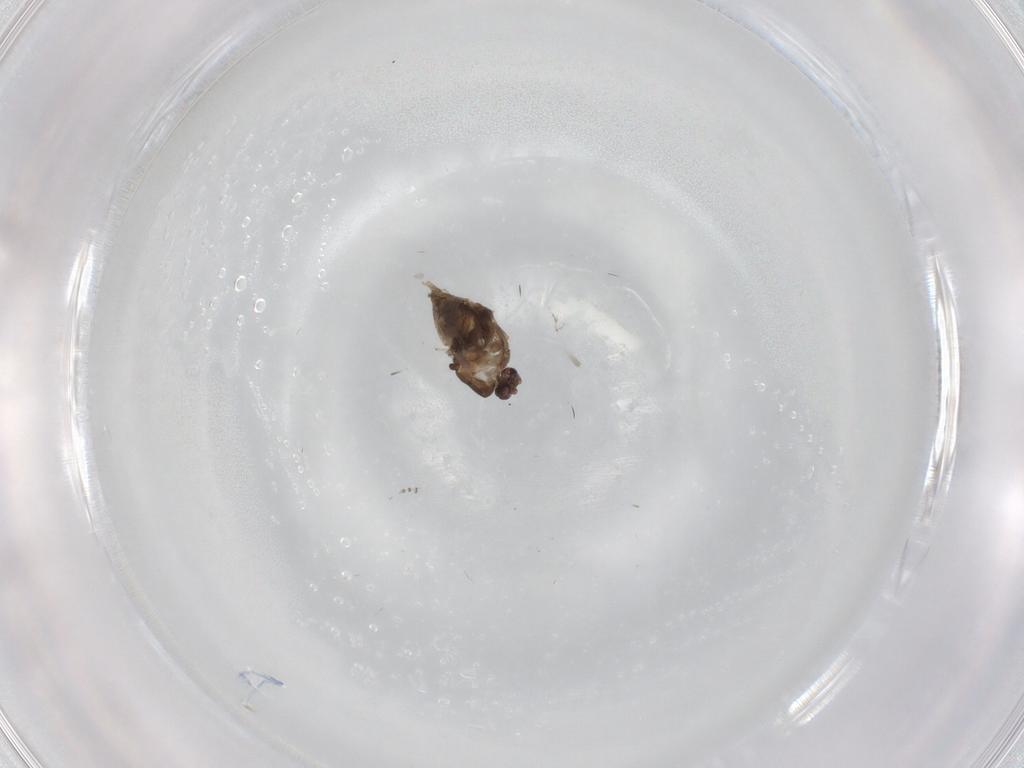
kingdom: Animalia
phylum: Arthropoda
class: Insecta
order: Diptera
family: Ceratopogonidae
